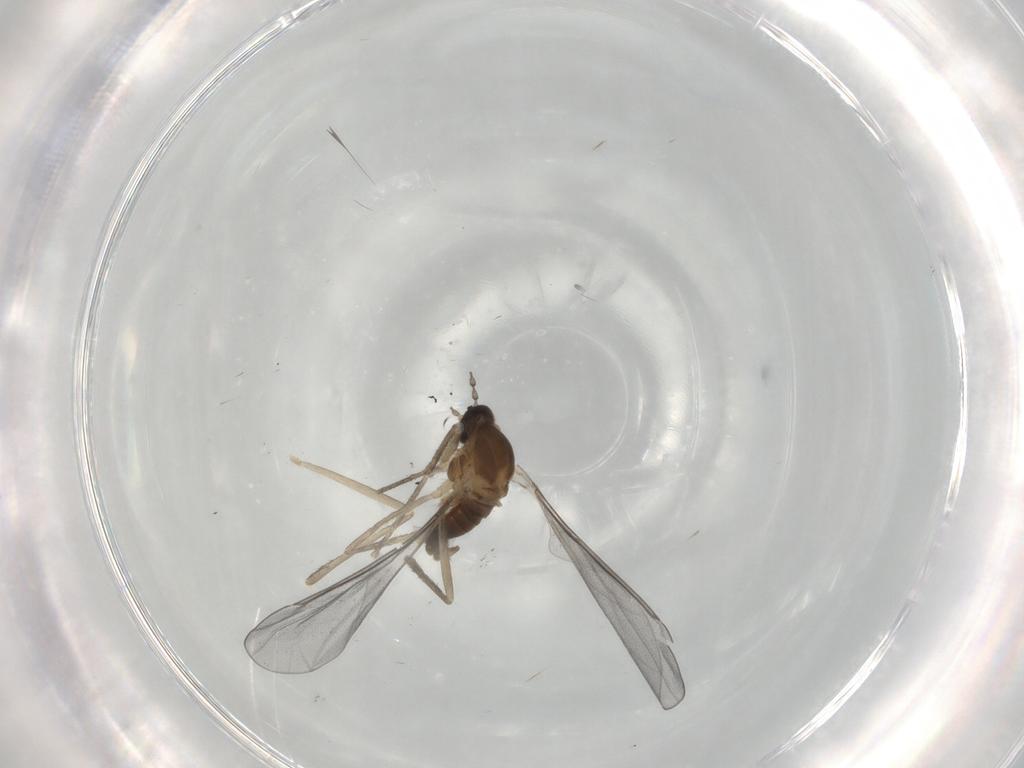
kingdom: Animalia
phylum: Arthropoda
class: Insecta
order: Diptera
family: Cecidomyiidae
